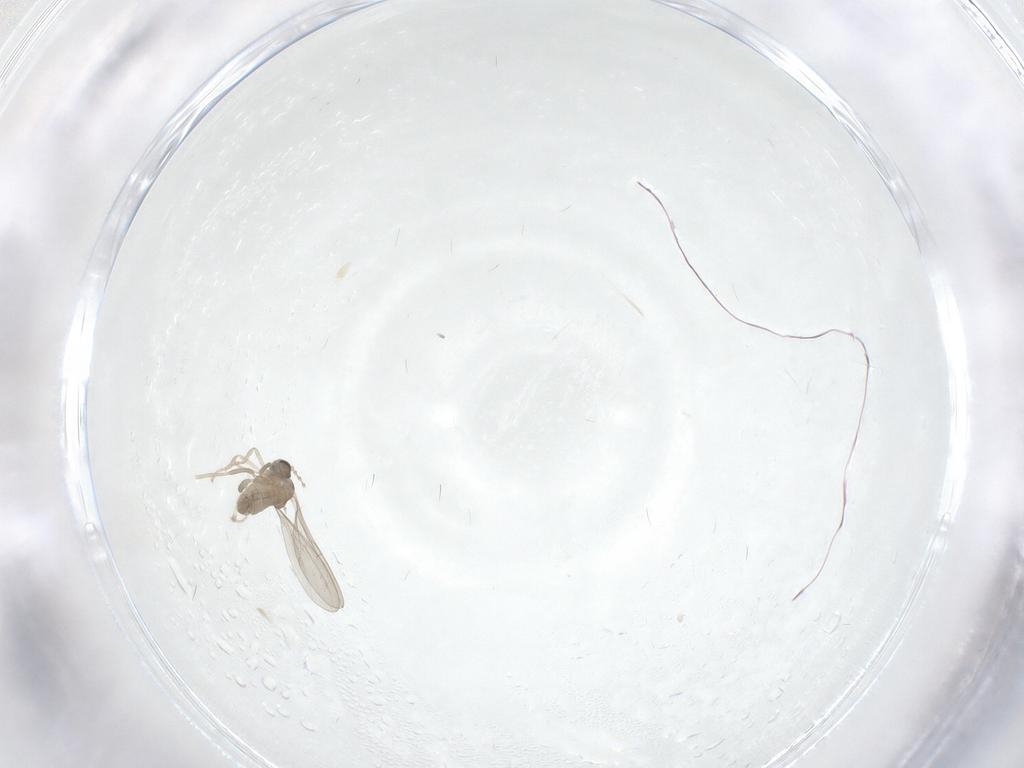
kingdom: Animalia
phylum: Arthropoda
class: Insecta
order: Diptera
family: Cecidomyiidae
